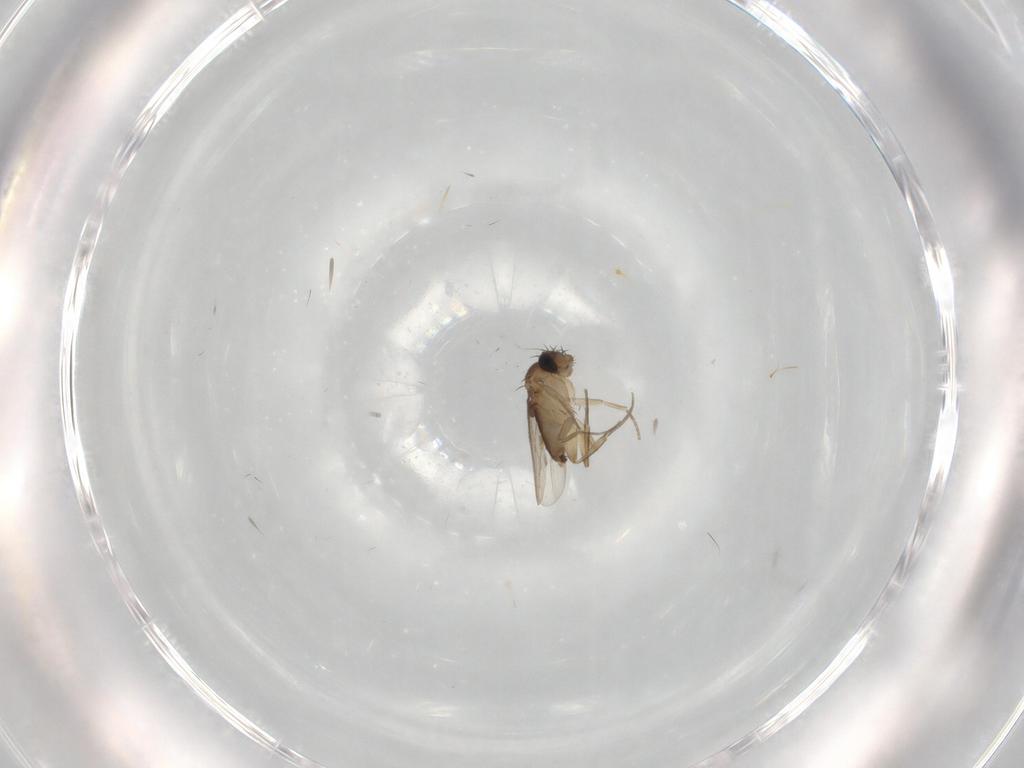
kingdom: Animalia
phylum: Arthropoda
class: Insecta
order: Diptera
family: Phoridae
